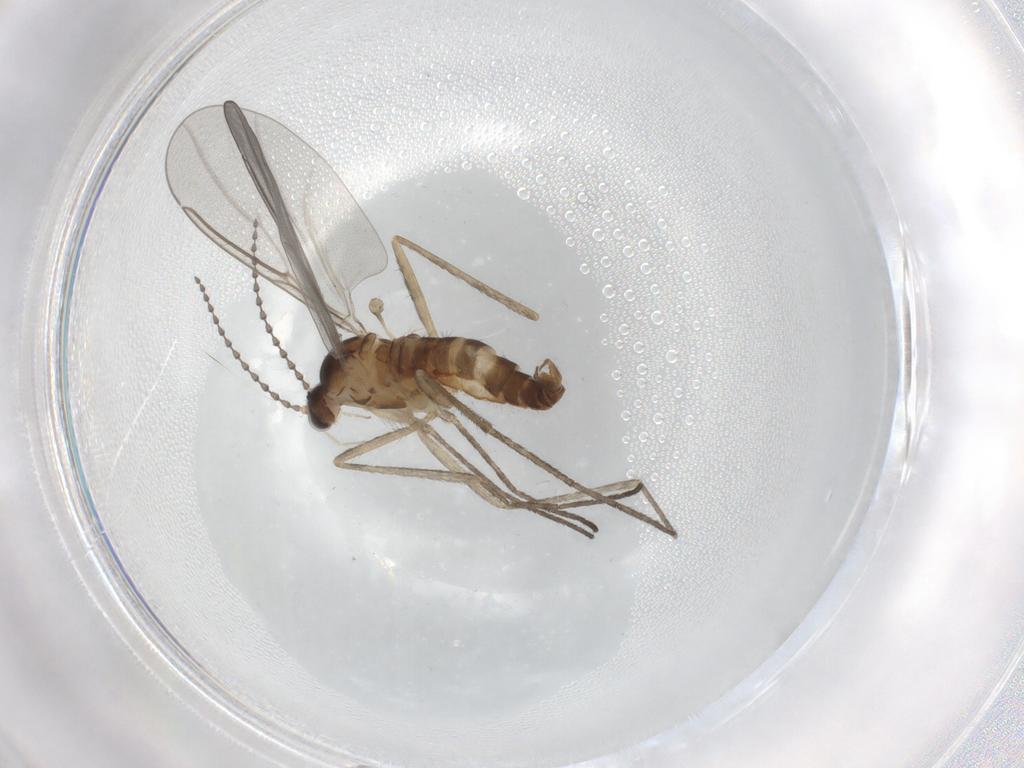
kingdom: Animalia
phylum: Arthropoda
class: Insecta
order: Diptera
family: Cecidomyiidae
